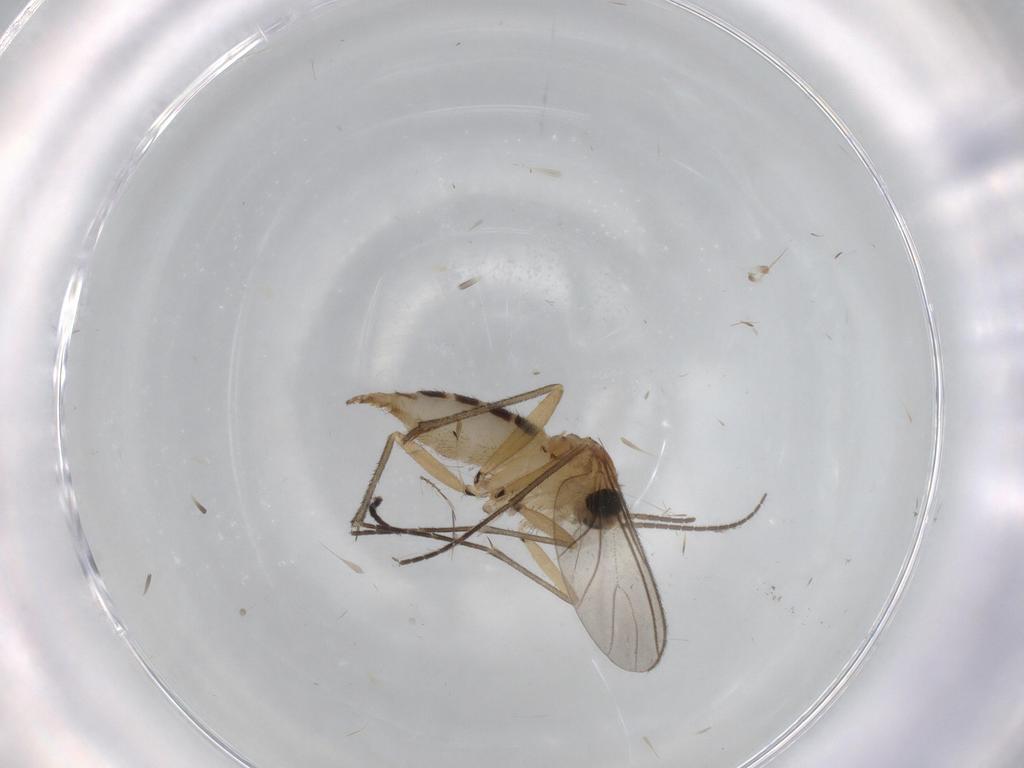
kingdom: Animalia
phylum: Arthropoda
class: Insecta
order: Diptera
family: Sciaridae
